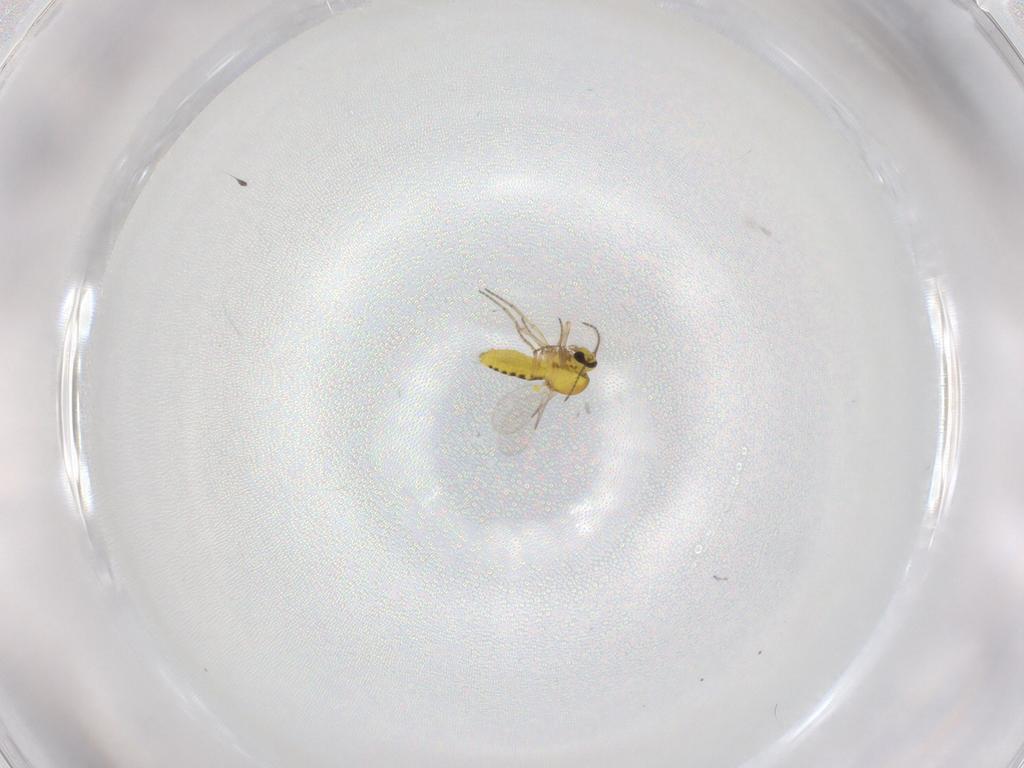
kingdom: Animalia
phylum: Arthropoda
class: Insecta
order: Diptera
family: Ceratopogonidae
